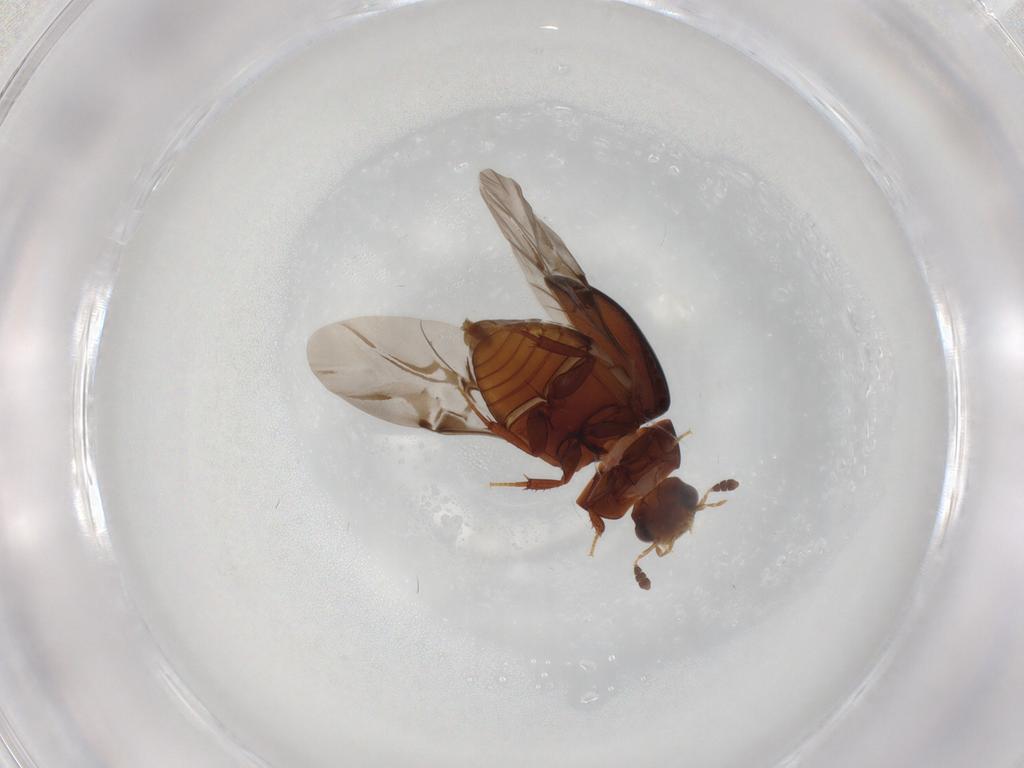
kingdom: Animalia
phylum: Arthropoda
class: Insecta
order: Coleoptera
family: Hydrophilidae
